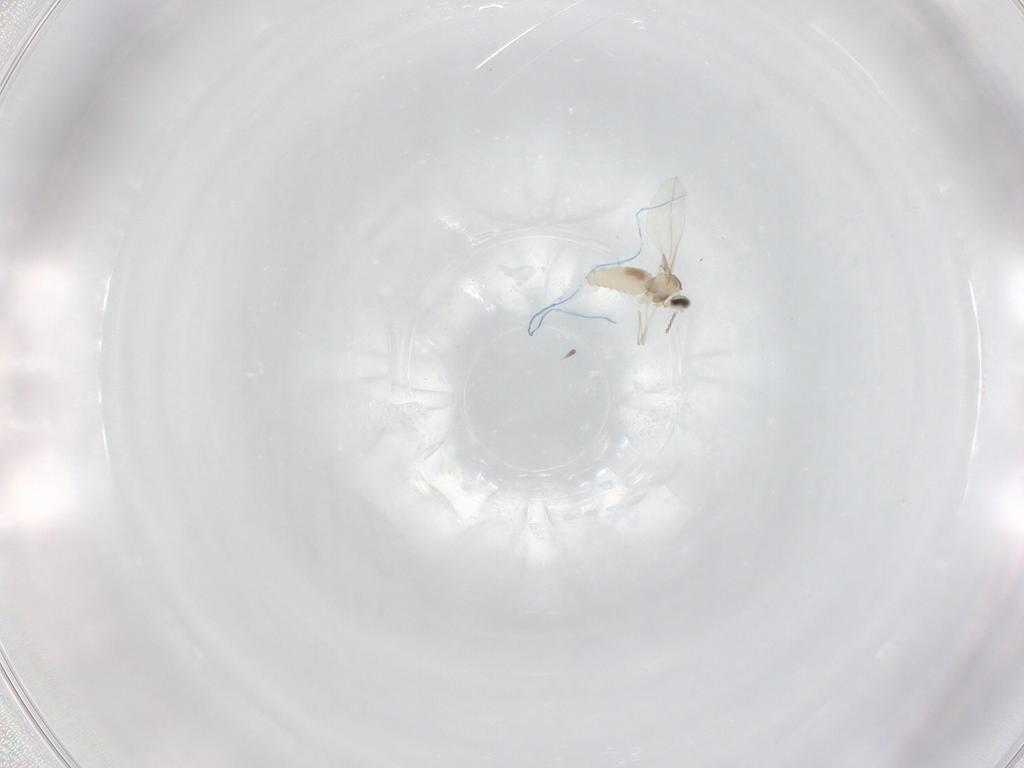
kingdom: Animalia
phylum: Arthropoda
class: Insecta
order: Diptera
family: Cecidomyiidae
